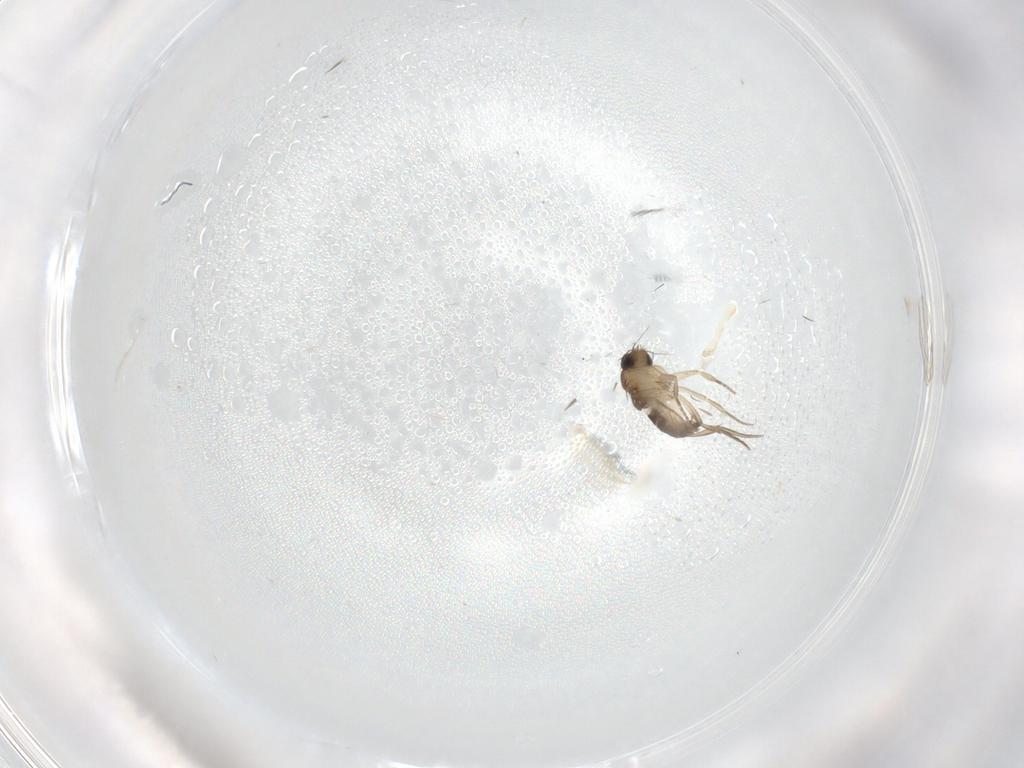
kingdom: Animalia
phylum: Arthropoda
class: Insecta
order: Diptera
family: Phoridae
